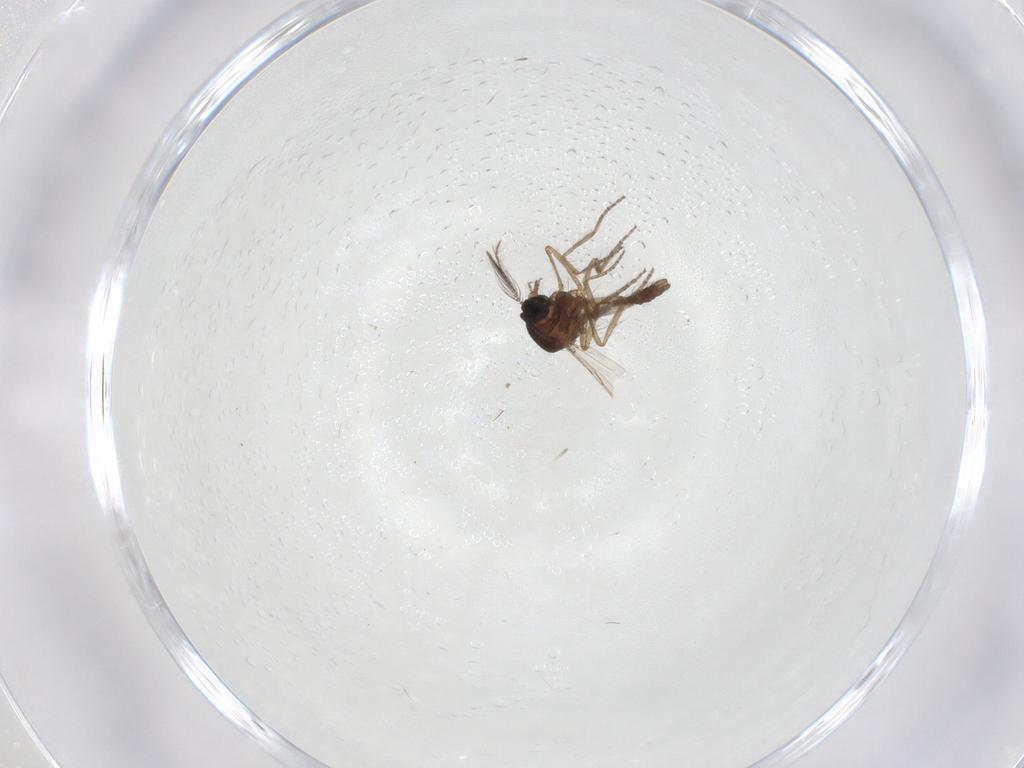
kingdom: Animalia
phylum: Arthropoda
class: Insecta
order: Diptera
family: Ceratopogonidae
